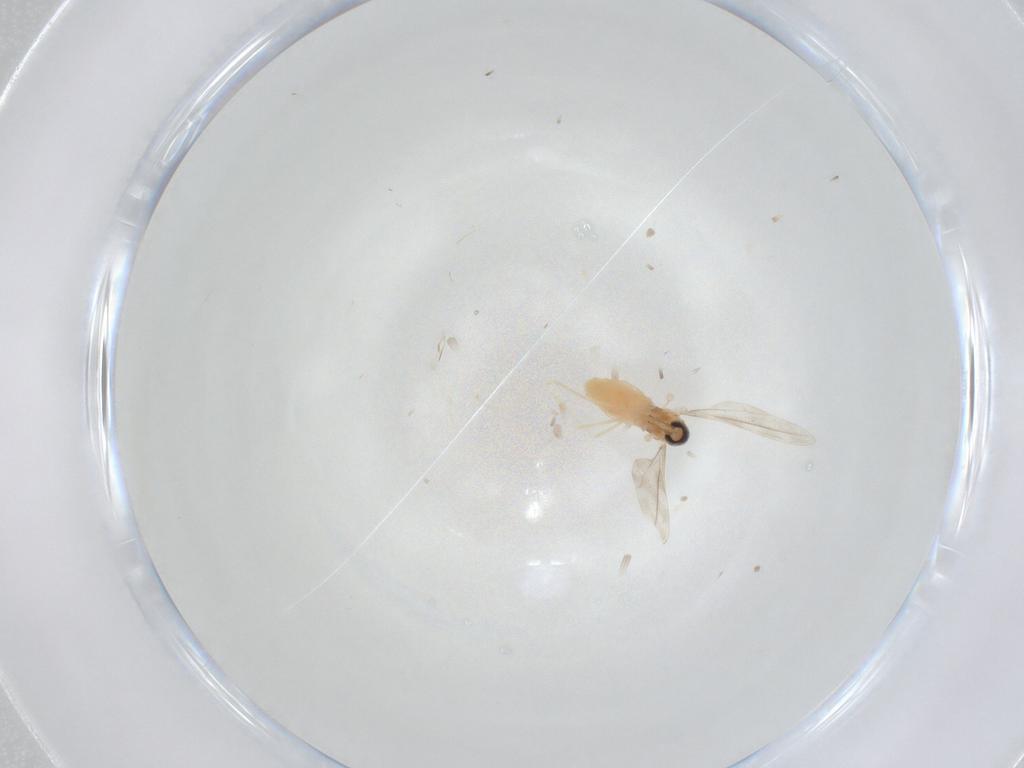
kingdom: Animalia
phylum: Arthropoda
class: Insecta
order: Diptera
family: Cecidomyiidae
